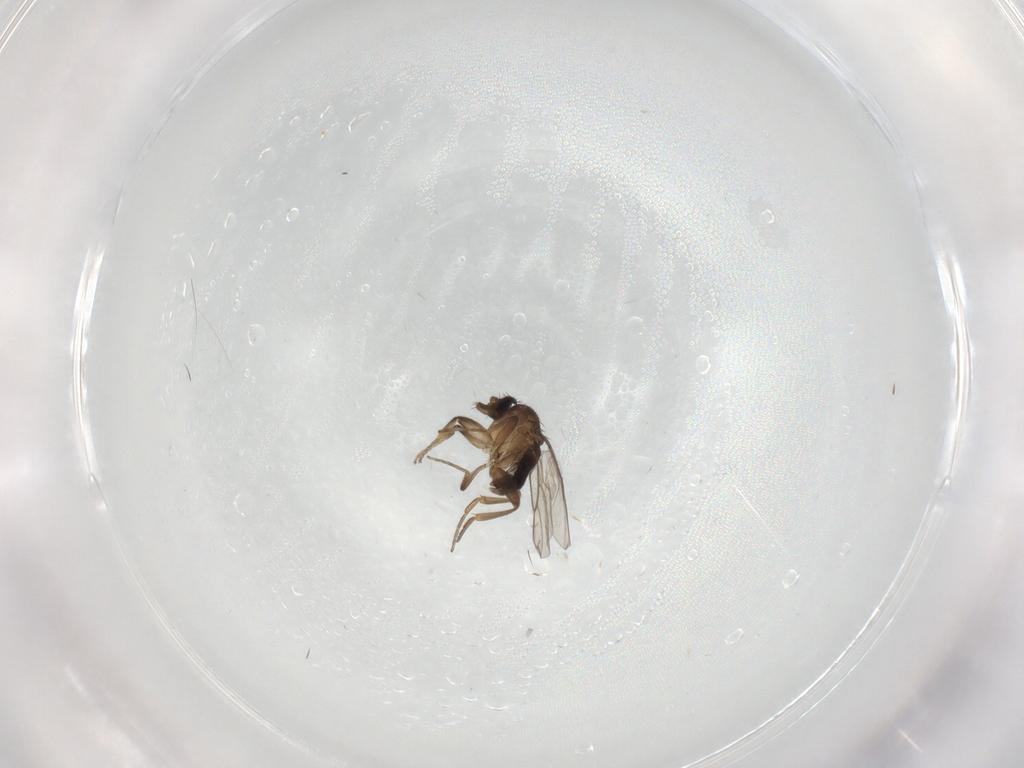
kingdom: Animalia
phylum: Arthropoda
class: Insecta
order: Diptera
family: Phoridae
